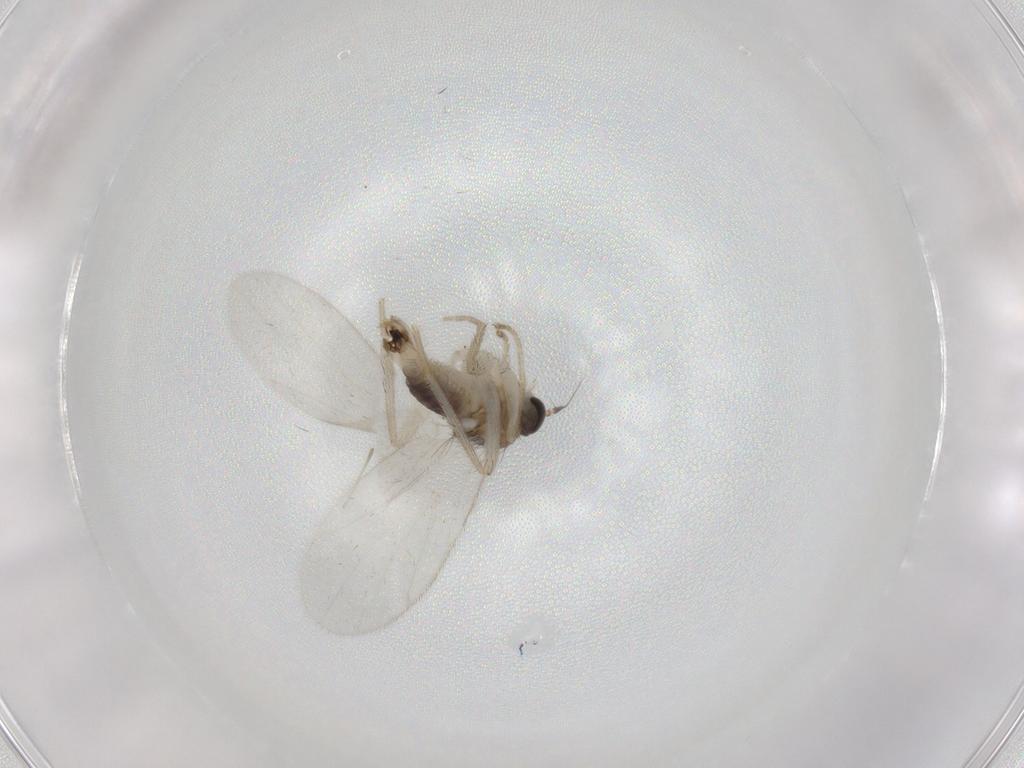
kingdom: Animalia
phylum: Arthropoda
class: Insecta
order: Diptera
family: Hybotidae
